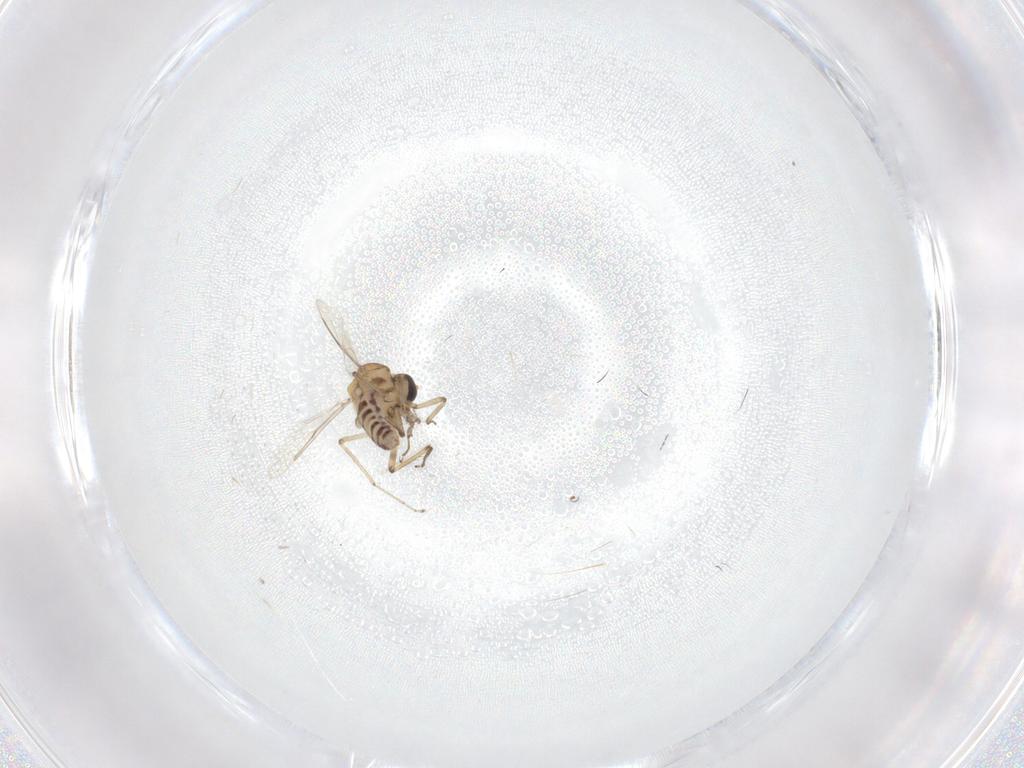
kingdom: Animalia
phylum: Arthropoda
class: Insecta
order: Diptera
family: Ceratopogonidae
